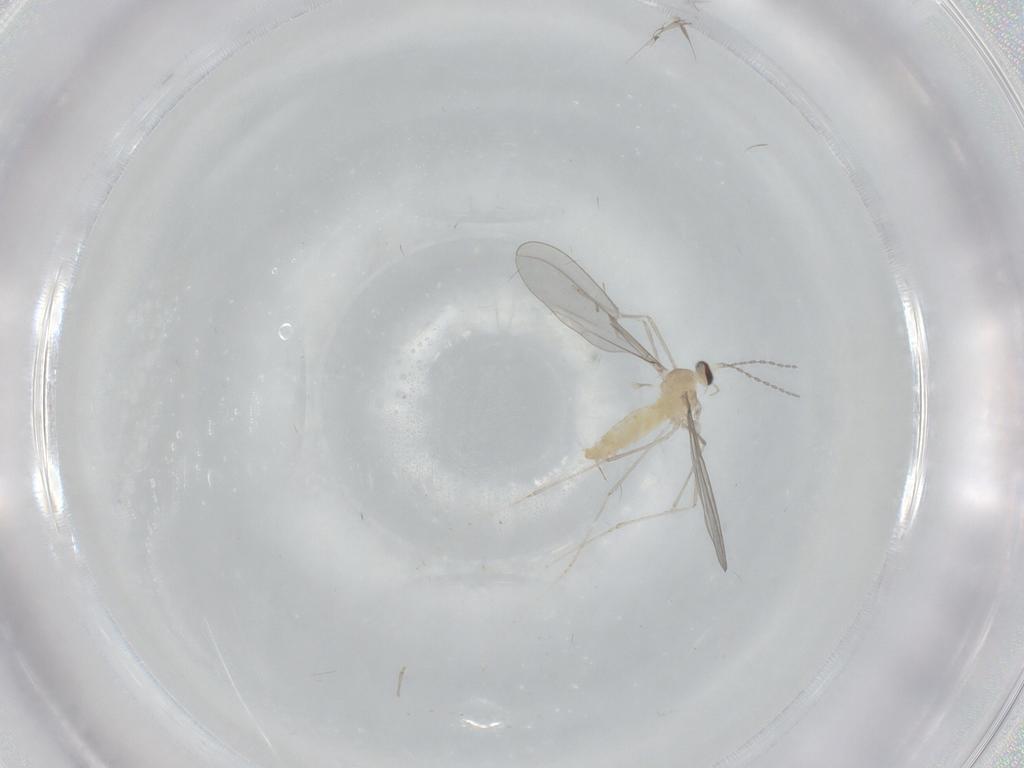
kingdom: Animalia
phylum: Arthropoda
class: Insecta
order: Diptera
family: Cecidomyiidae
